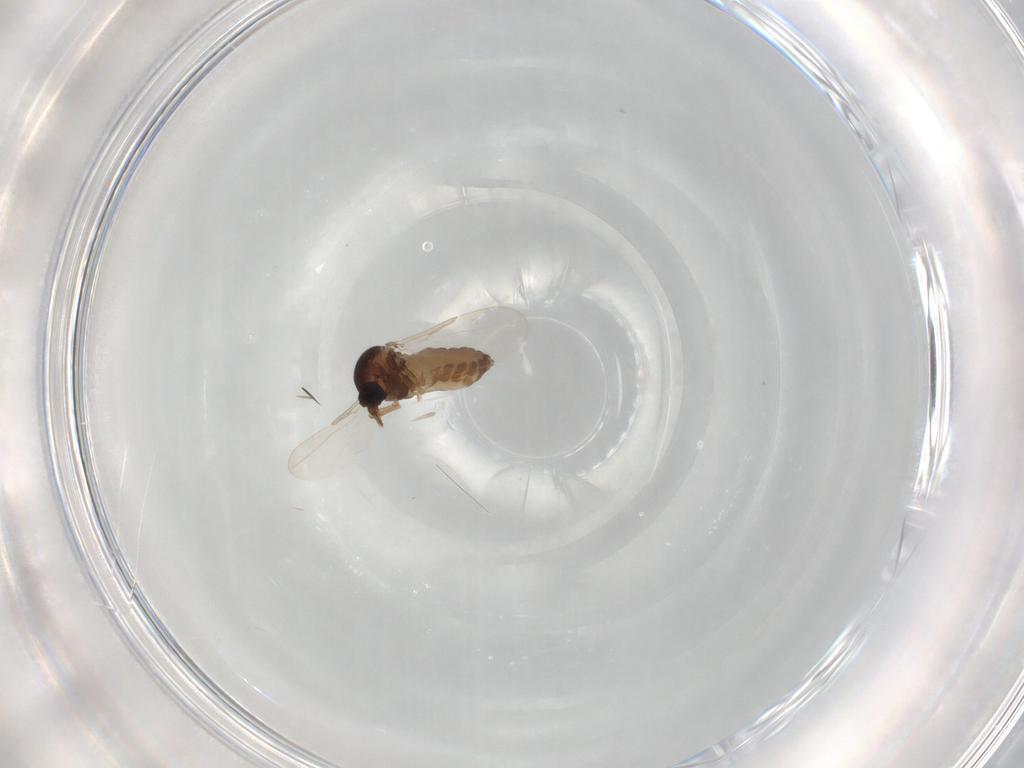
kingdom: Animalia
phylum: Arthropoda
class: Insecta
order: Diptera
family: Ceratopogonidae
